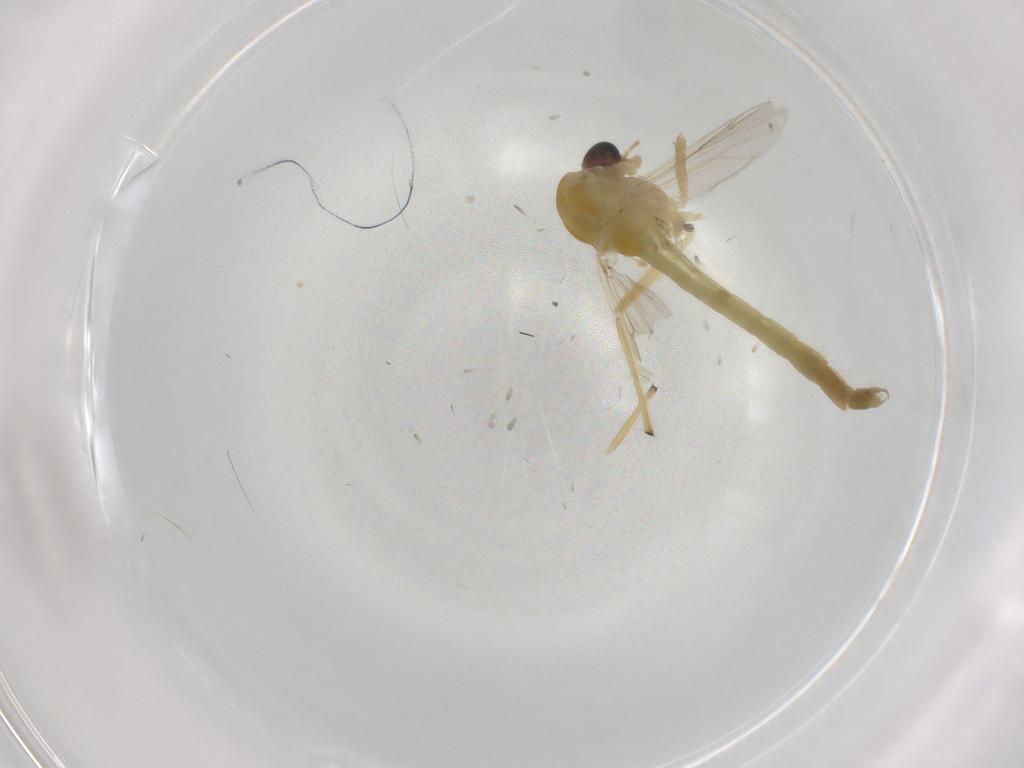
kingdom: Animalia
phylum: Arthropoda
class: Insecta
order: Diptera
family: Chironomidae
